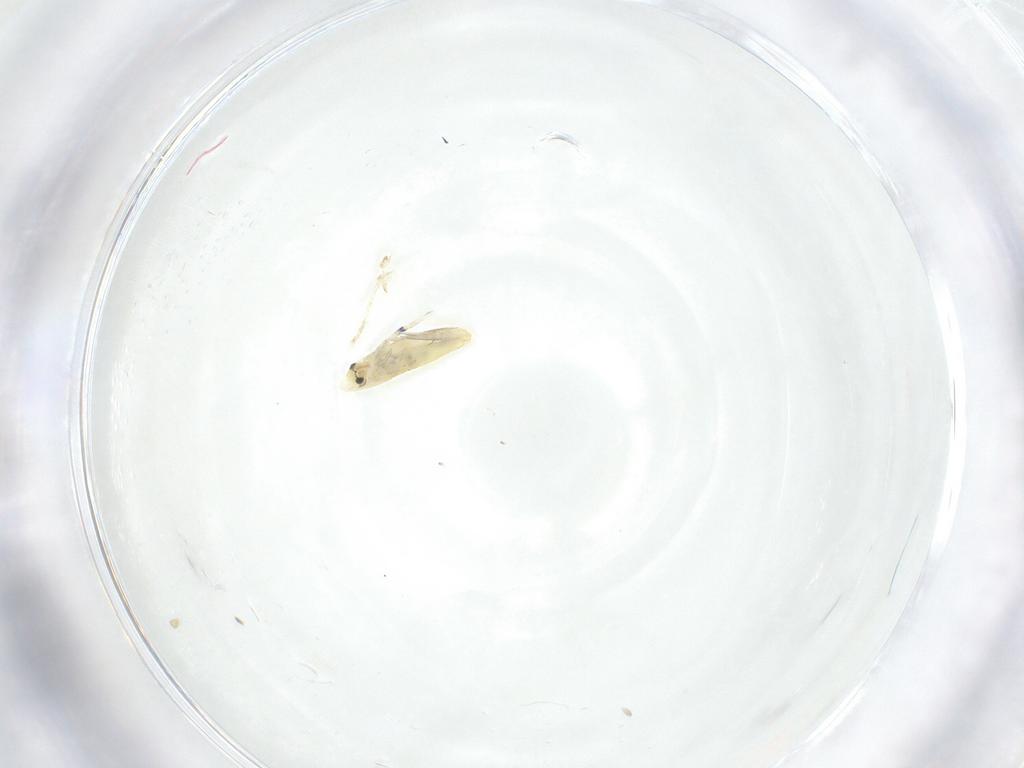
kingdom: Animalia
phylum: Arthropoda
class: Collembola
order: Entomobryomorpha
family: Entomobryidae
